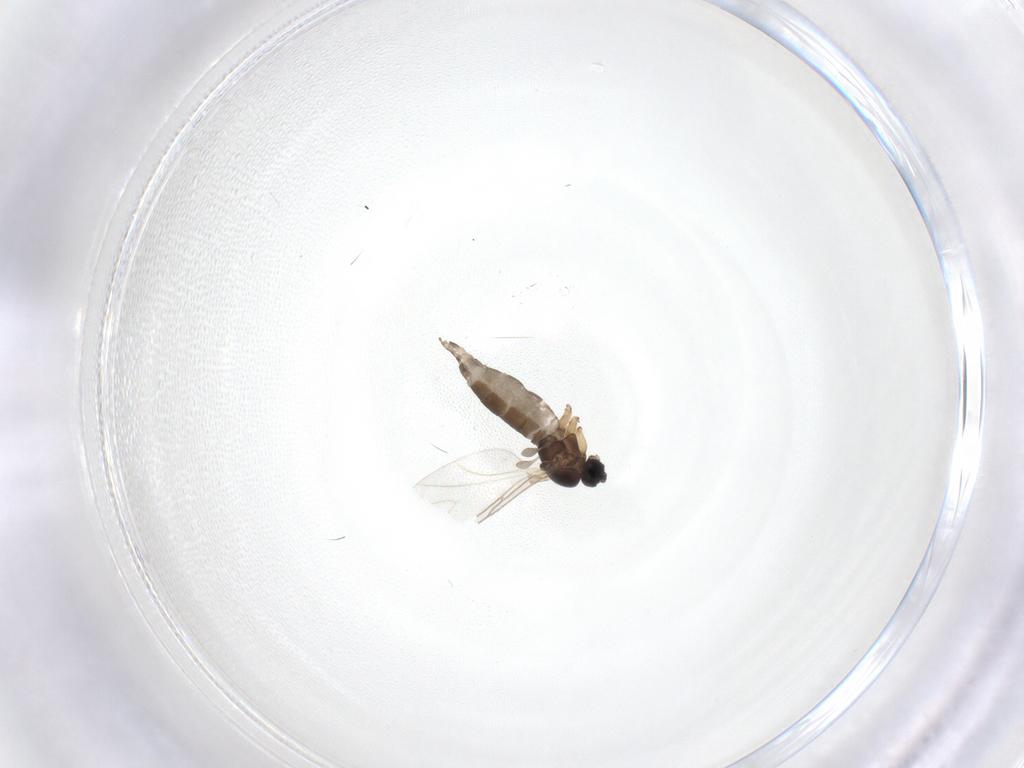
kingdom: Animalia
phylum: Arthropoda
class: Insecta
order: Diptera
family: Sciaridae
